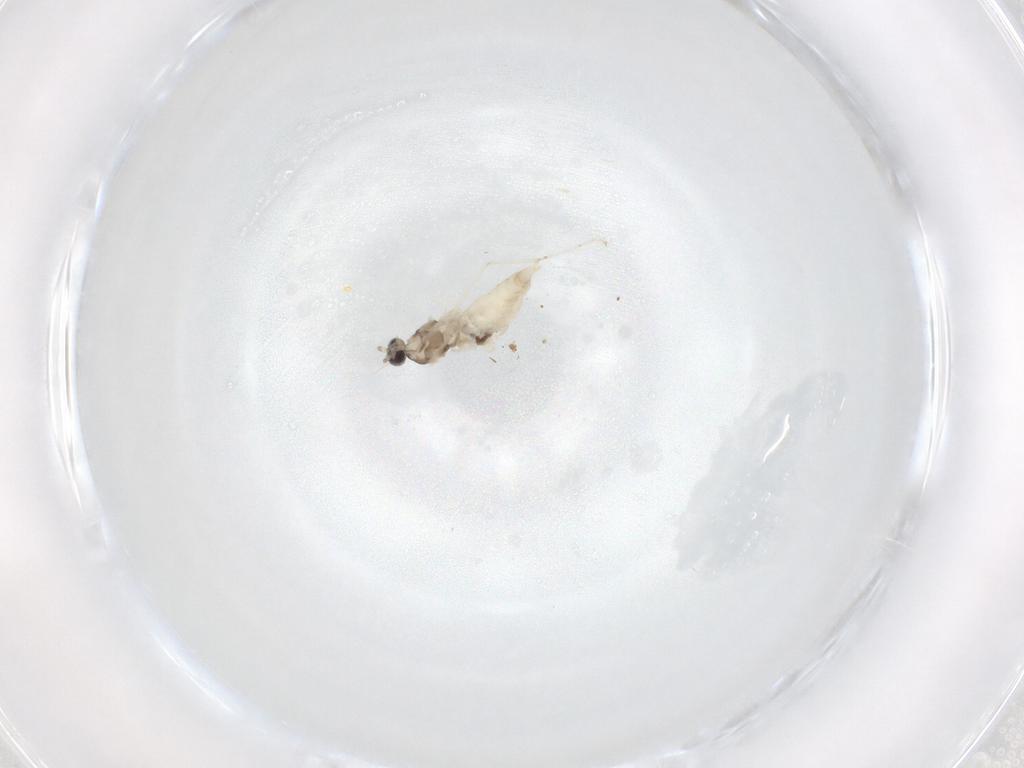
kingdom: Animalia
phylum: Arthropoda
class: Insecta
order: Diptera
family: Cecidomyiidae
